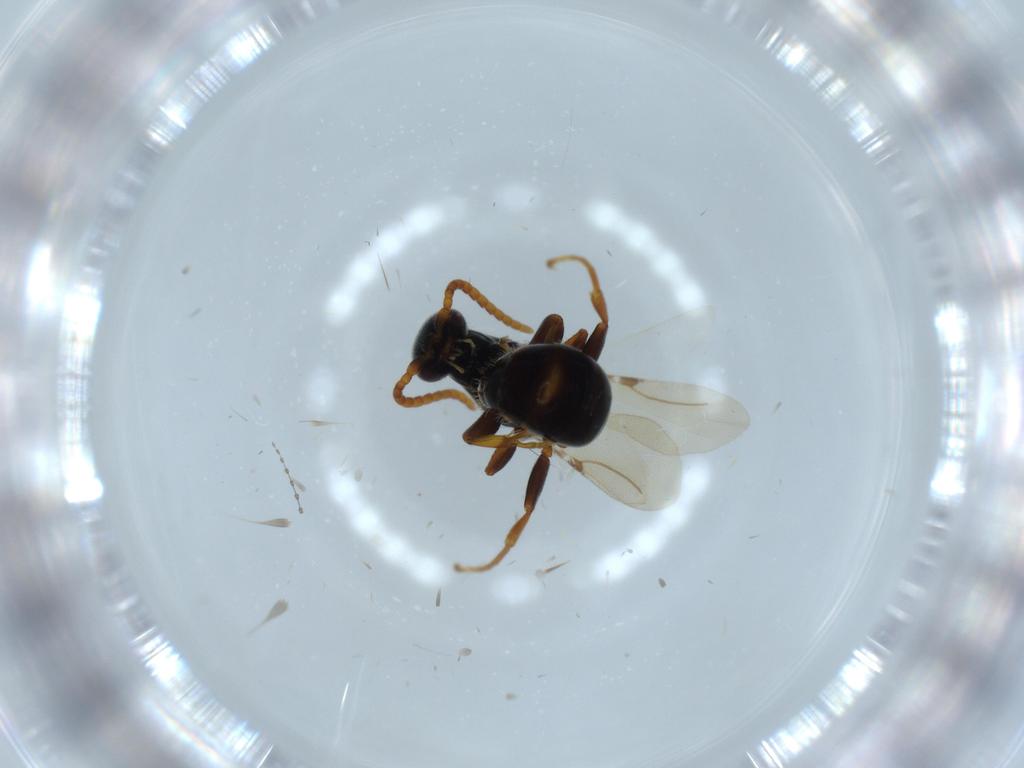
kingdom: Animalia
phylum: Arthropoda
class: Insecta
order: Hymenoptera
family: Bethylidae
